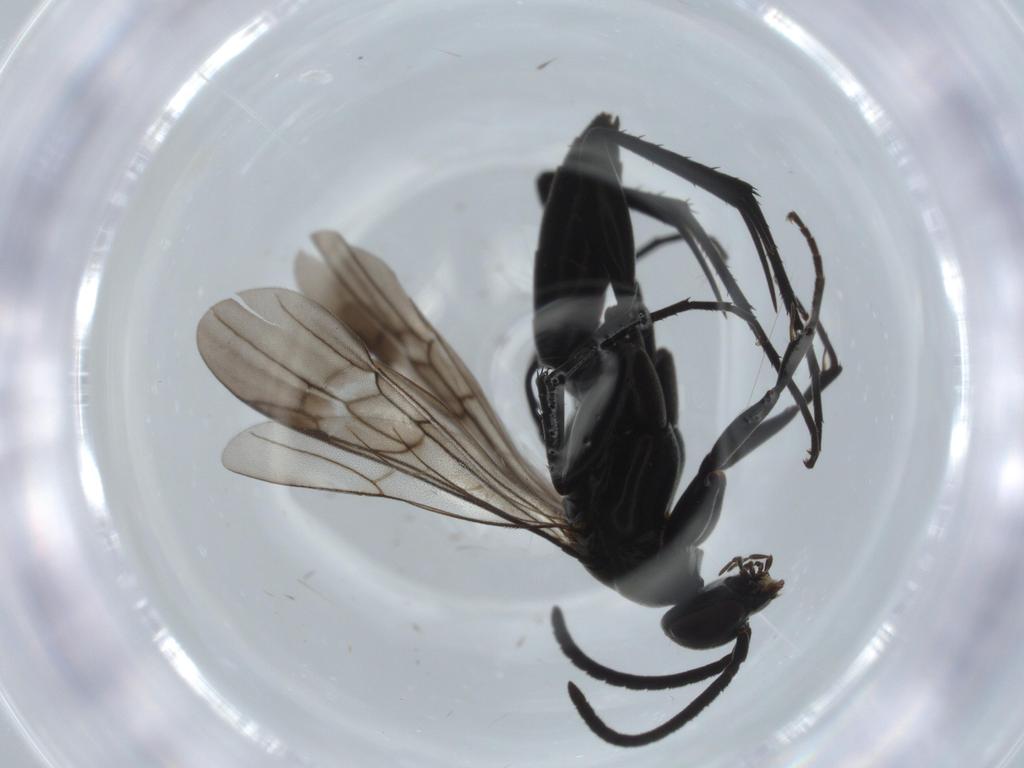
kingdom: Animalia
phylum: Arthropoda
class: Insecta
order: Hymenoptera
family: Pompilidae
